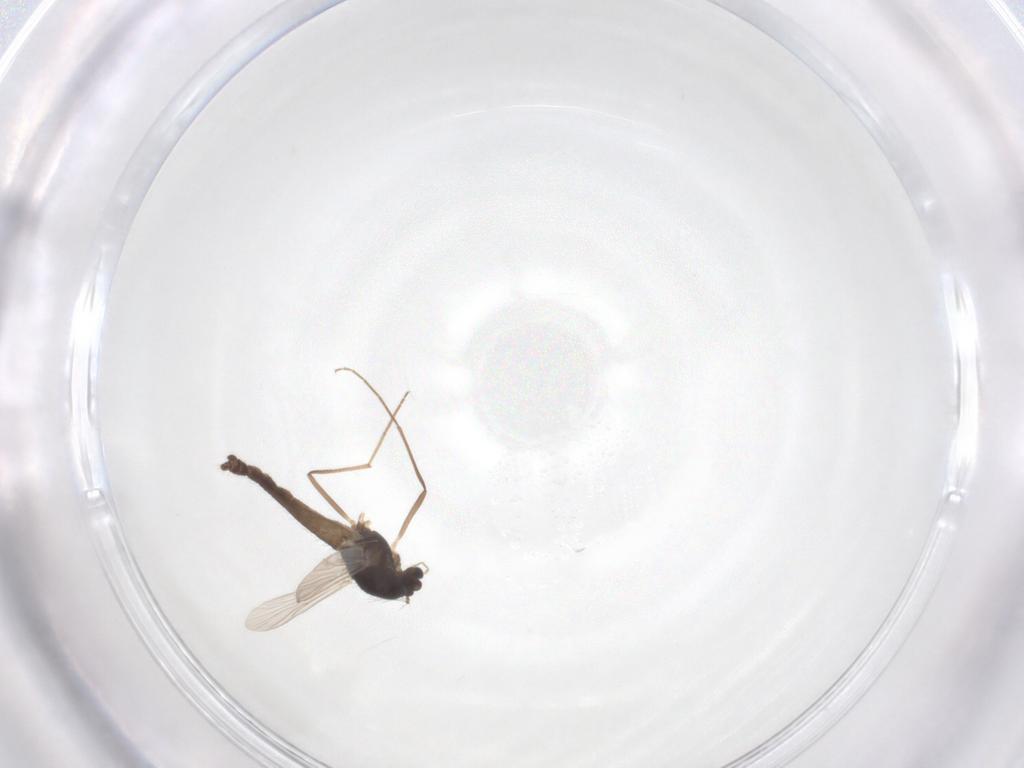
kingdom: Animalia
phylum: Arthropoda
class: Insecta
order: Diptera
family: Chironomidae
